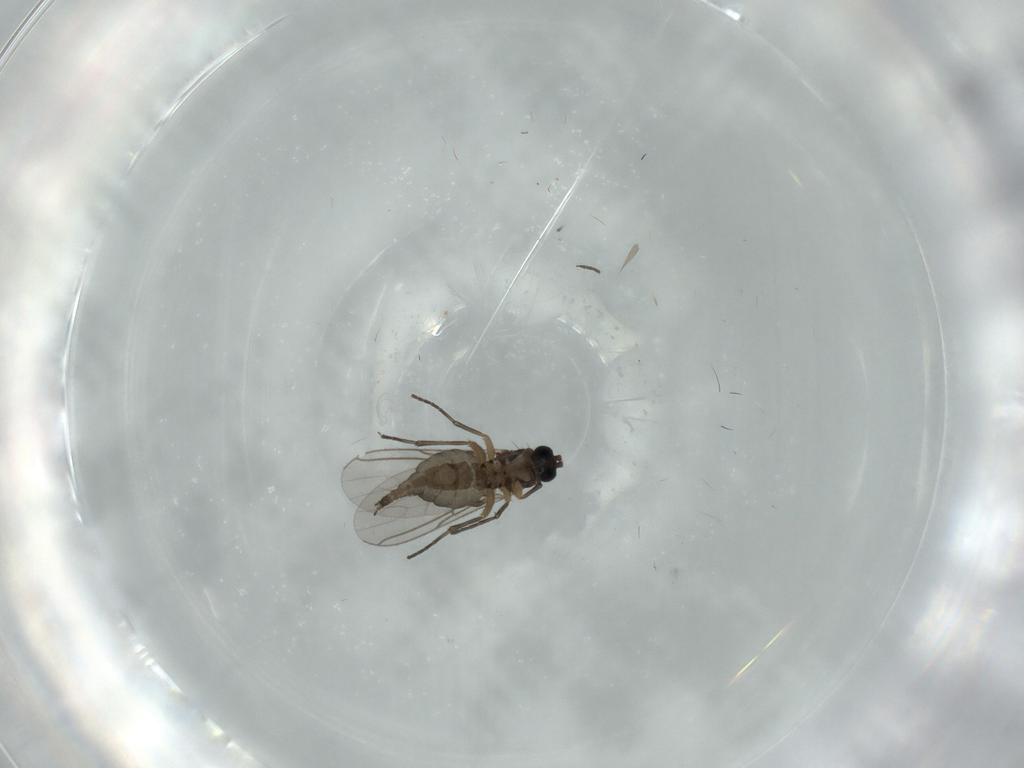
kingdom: Animalia
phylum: Arthropoda
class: Insecta
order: Diptera
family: Sciaridae
